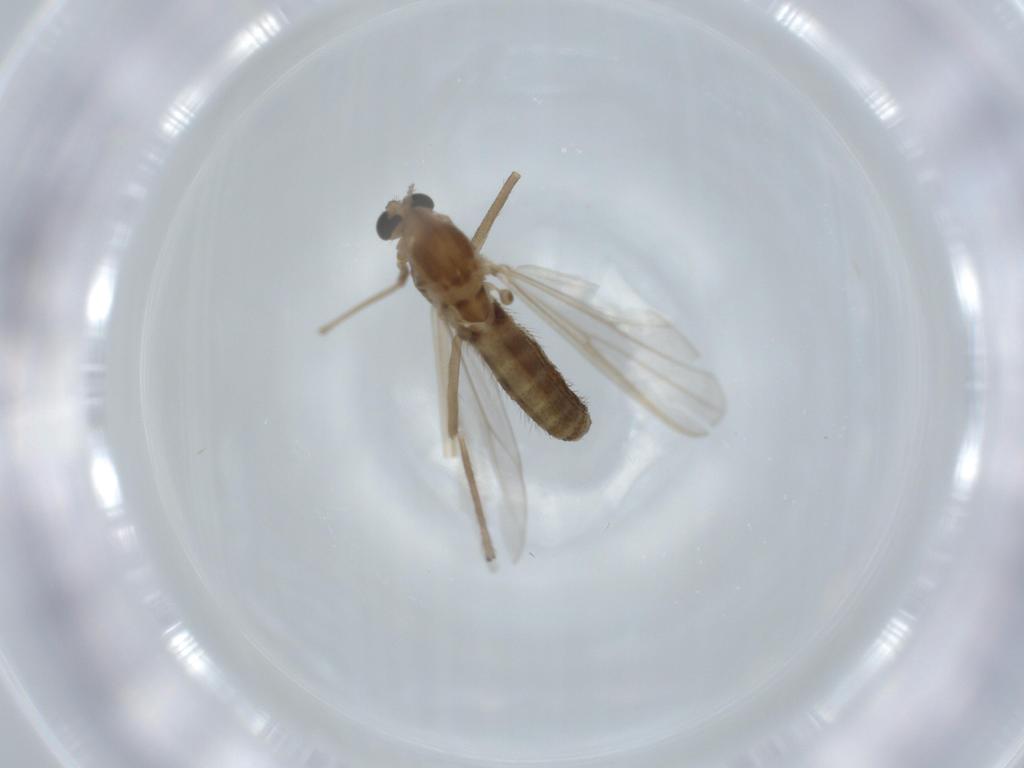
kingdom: Animalia
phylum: Arthropoda
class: Insecta
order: Diptera
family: Chironomidae
